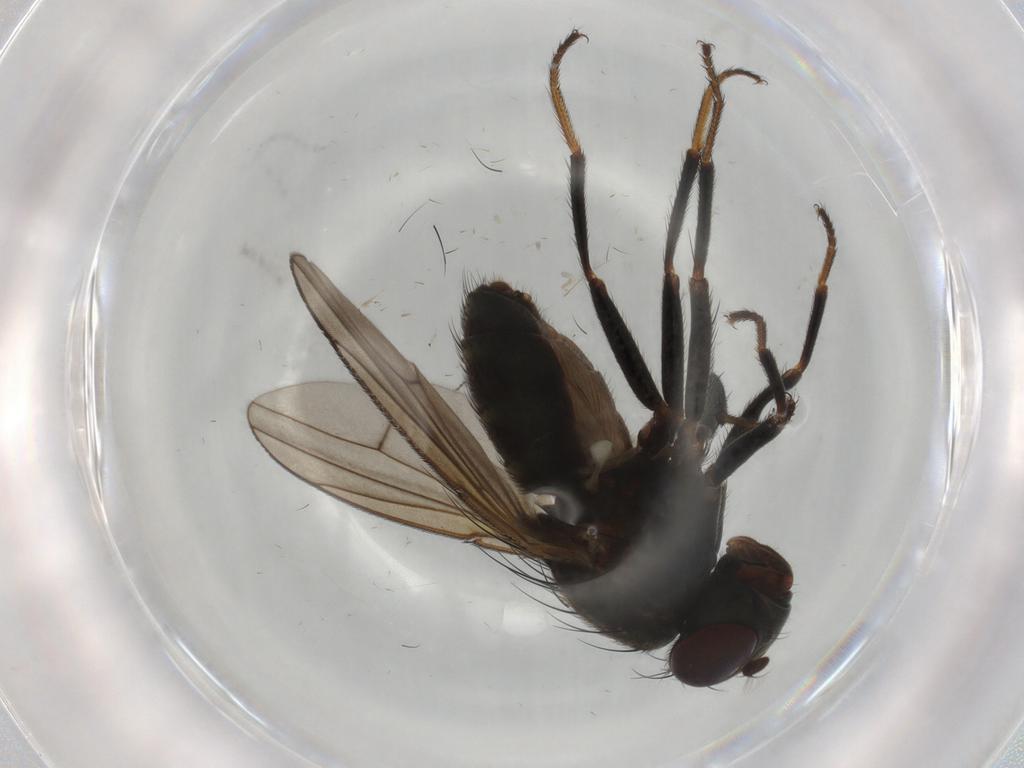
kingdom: Animalia
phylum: Arthropoda
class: Insecta
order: Diptera
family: Ephydridae
